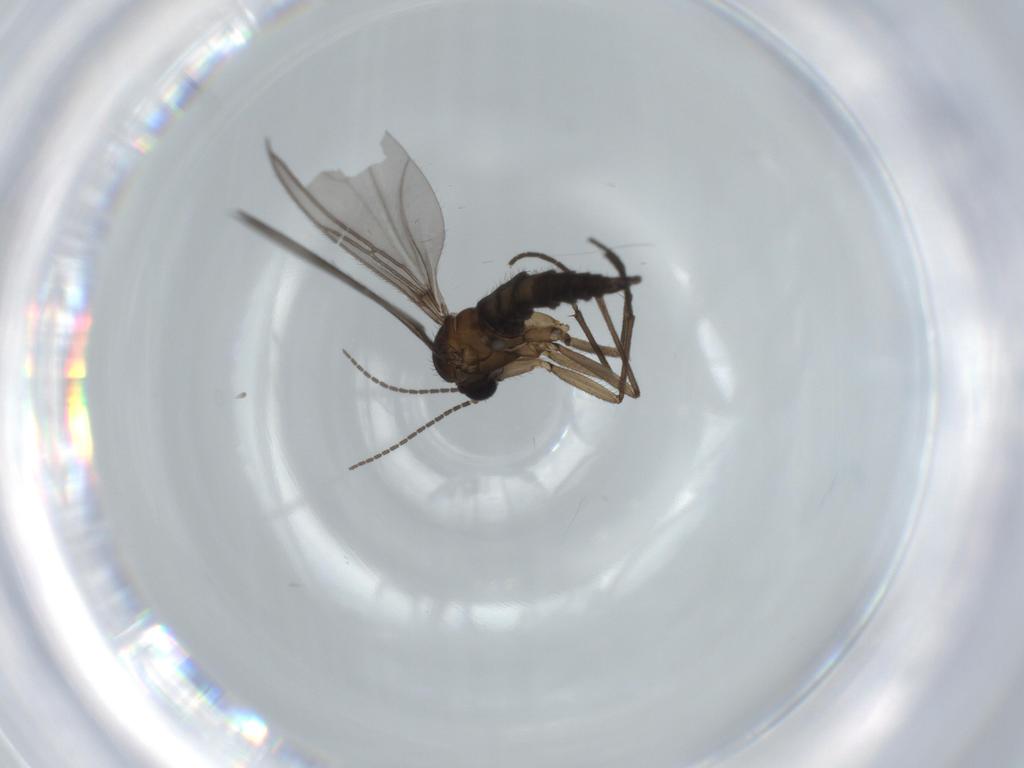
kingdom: Animalia
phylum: Arthropoda
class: Insecta
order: Diptera
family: Sciaridae
